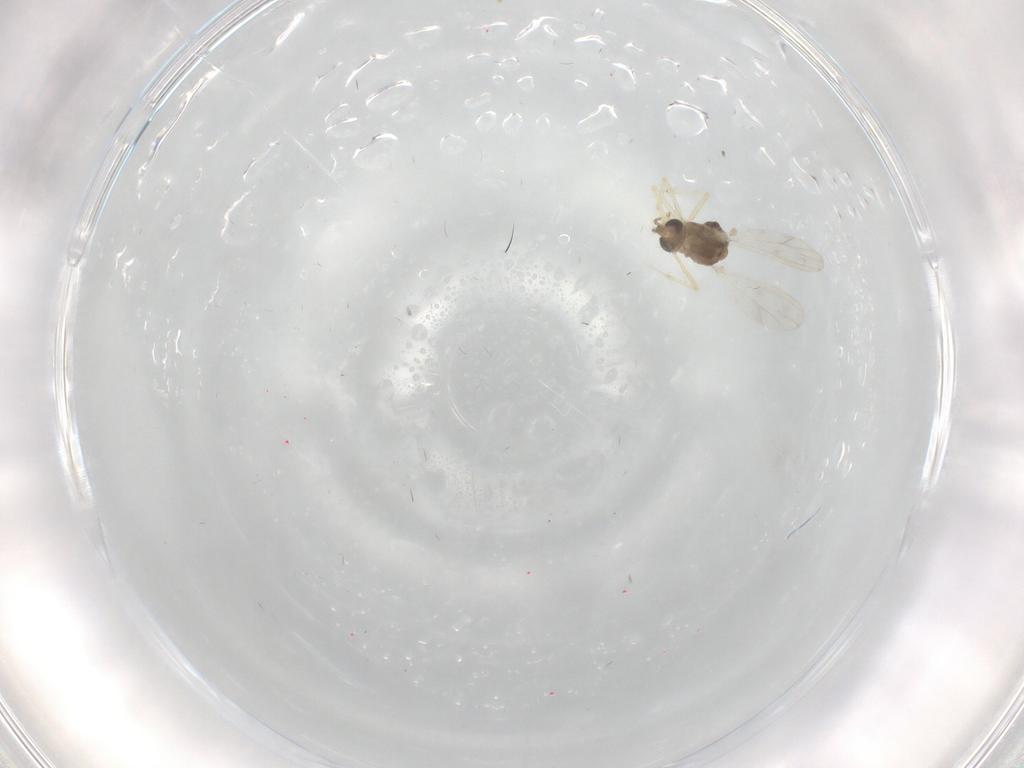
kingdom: Animalia
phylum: Arthropoda
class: Insecta
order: Diptera
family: Chironomidae
